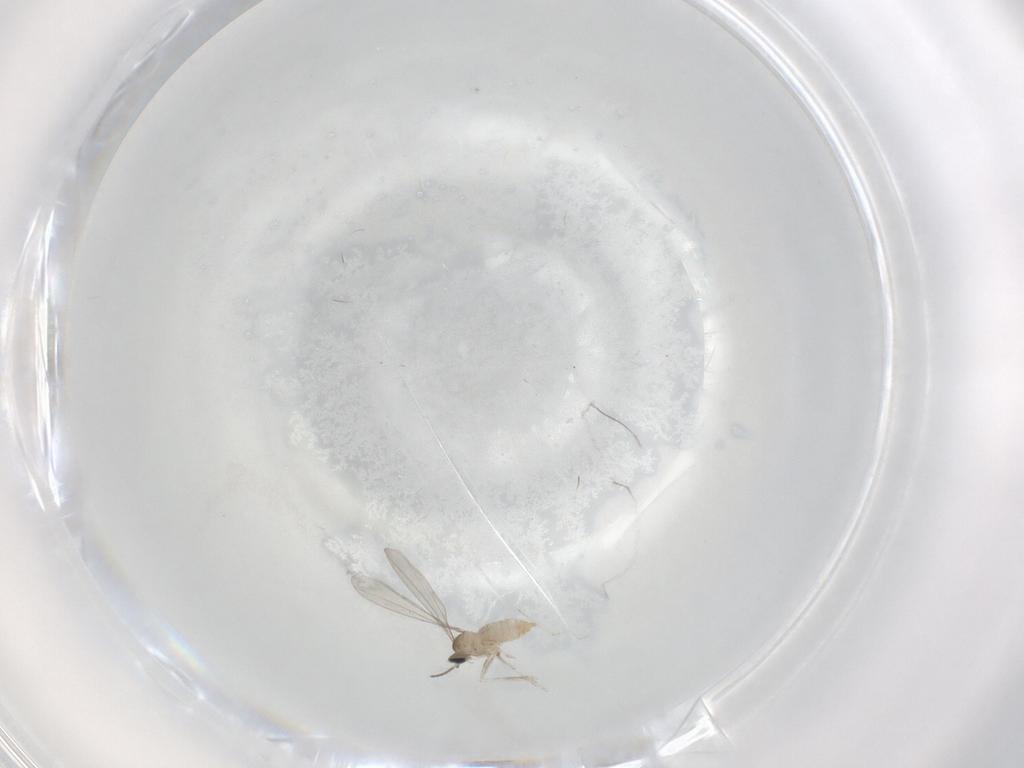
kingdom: Animalia
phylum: Arthropoda
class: Insecta
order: Diptera
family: Cecidomyiidae
